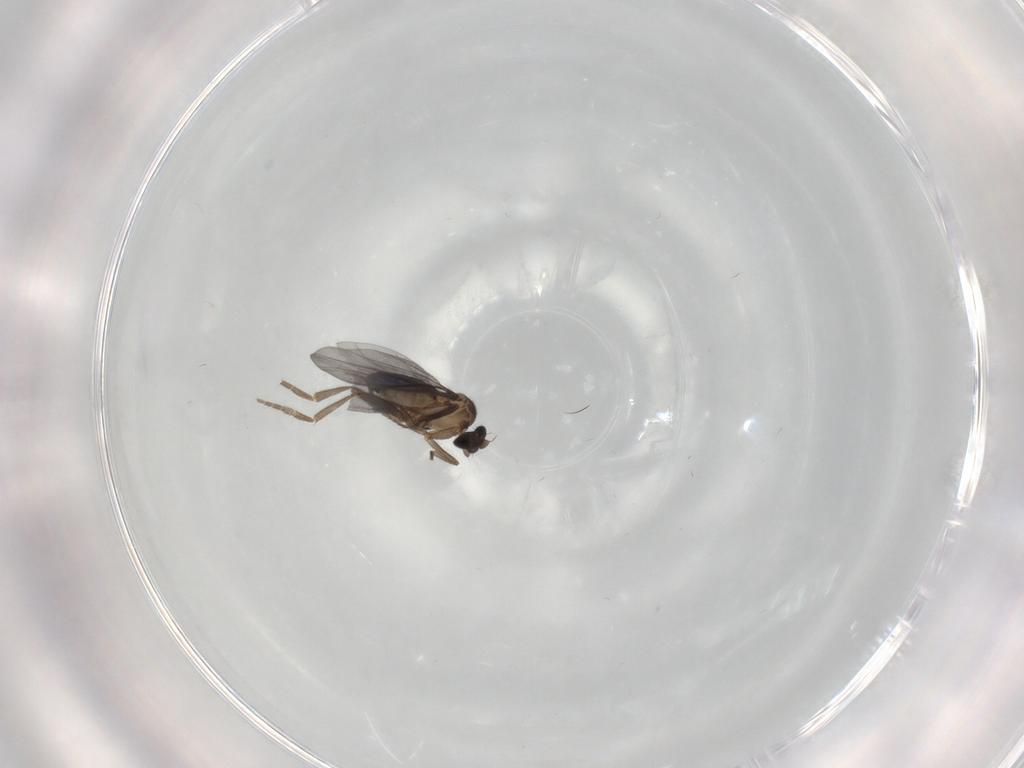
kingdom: Animalia
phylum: Arthropoda
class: Insecta
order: Diptera
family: Phoridae
